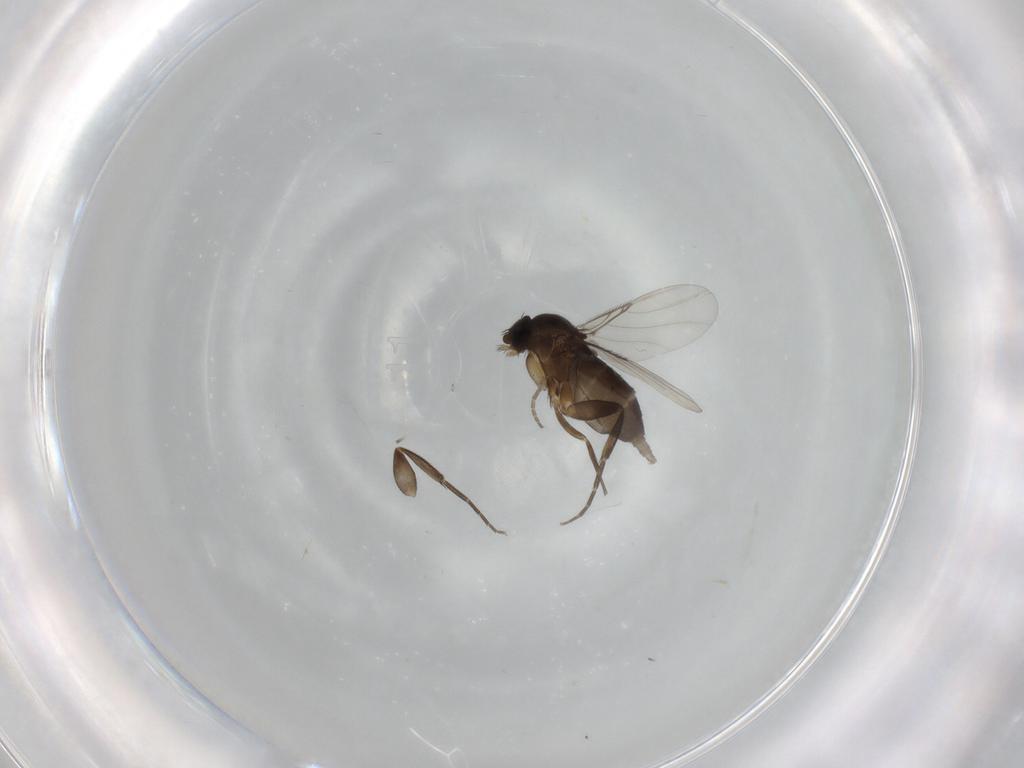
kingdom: Animalia
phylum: Arthropoda
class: Insecta
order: Diptera
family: Phoridae
